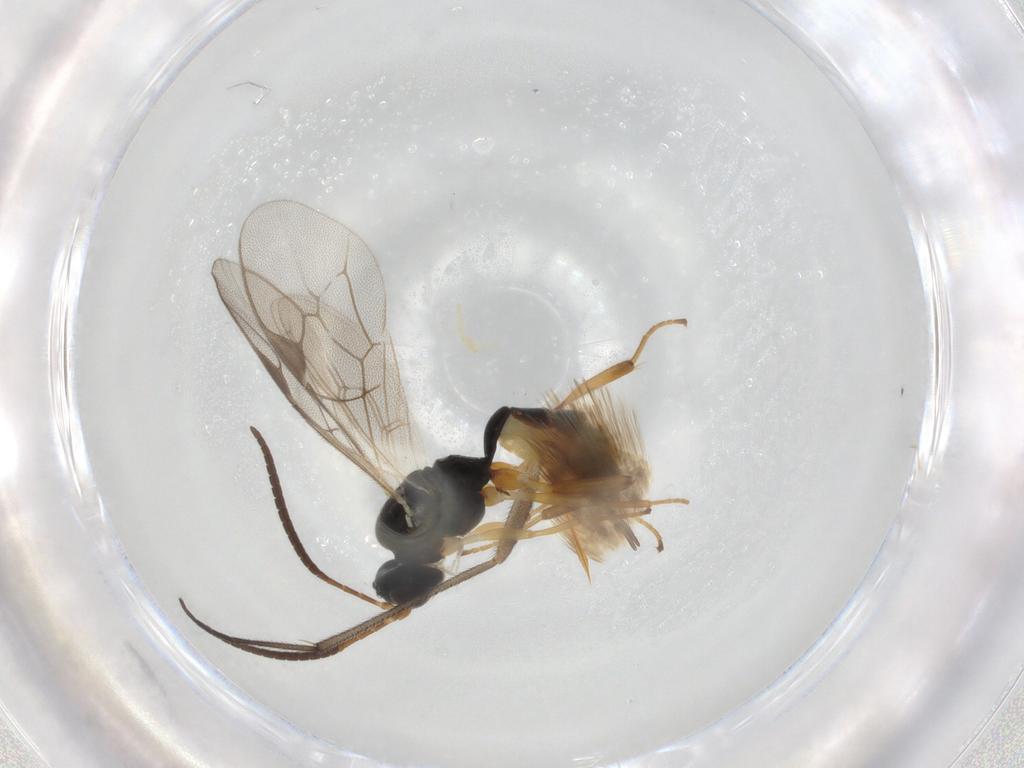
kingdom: Animalia
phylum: Arthropoda
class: Insecta
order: Hymenoptera
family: Ichneumonidae
